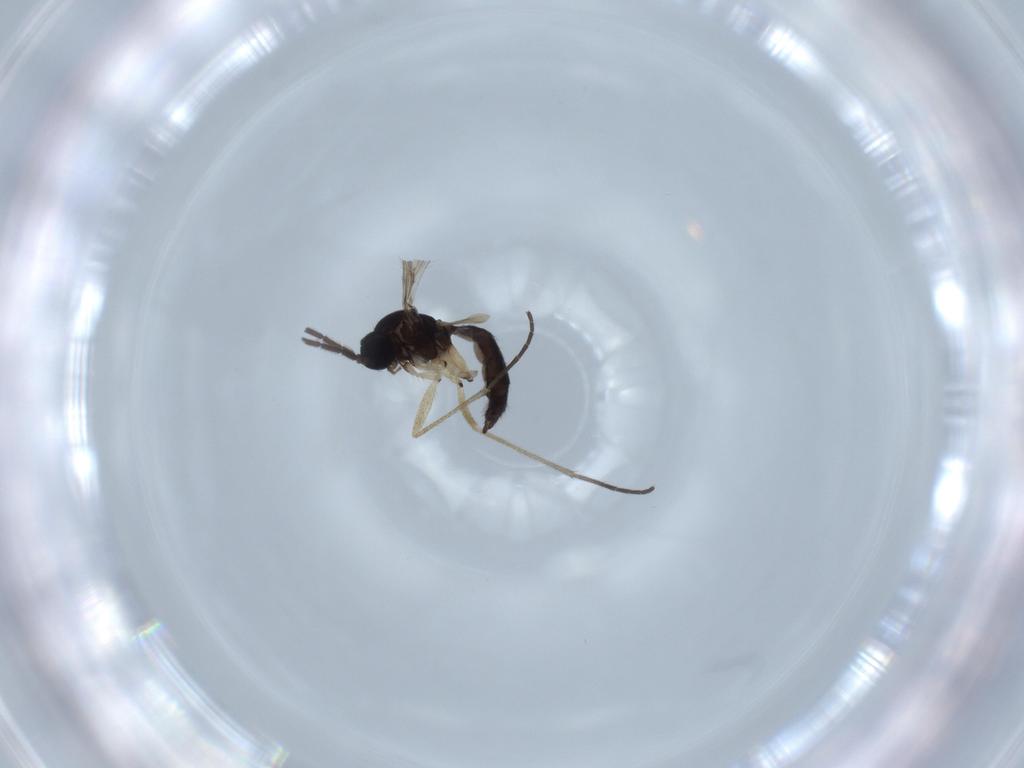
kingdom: Animalia
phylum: Arthropoda
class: Insecta
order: Diptera
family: Sciaridae
